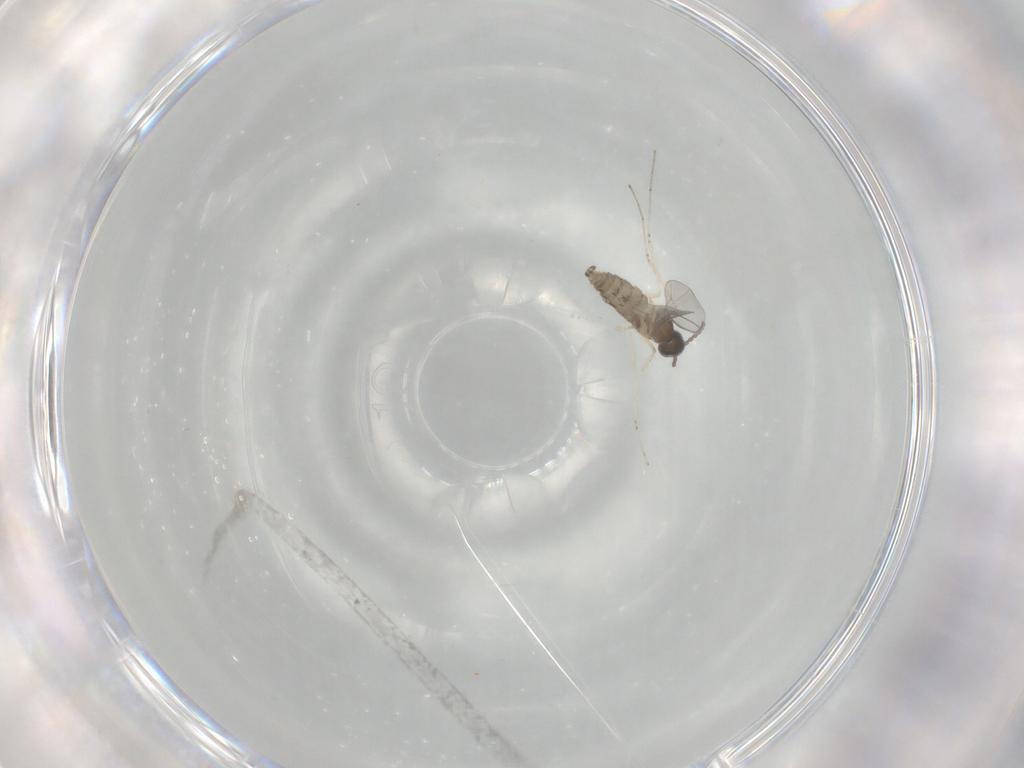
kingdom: Animalia
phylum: Arthropoda
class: Insecta
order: Diptera
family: Cecidomyiidae
